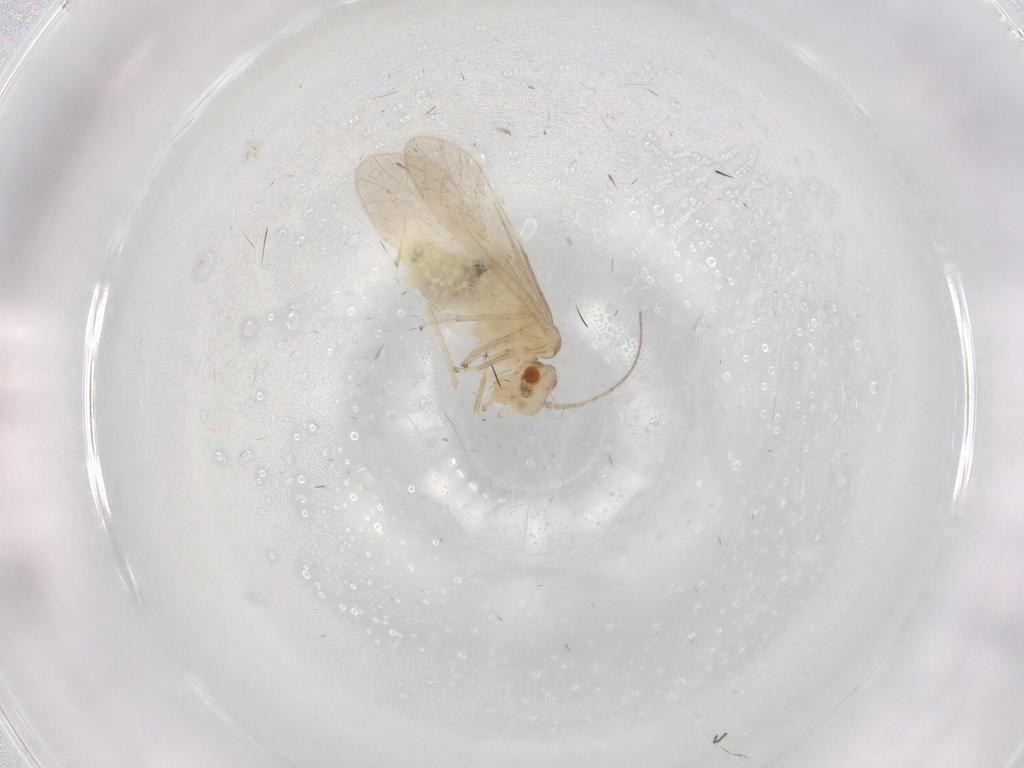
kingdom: Animalia
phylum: Arthropoda
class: Insecta
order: Psocodea
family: Caeciliusidae
